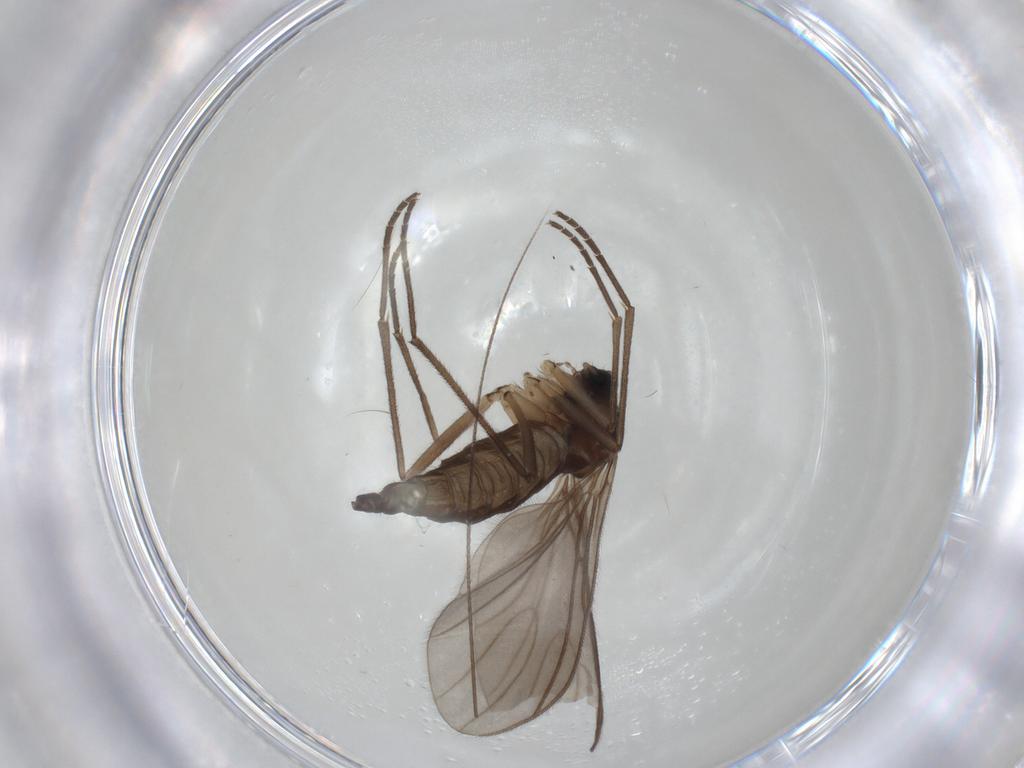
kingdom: Animalia
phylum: Arthropoda
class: Insecta
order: Diptera
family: Sciaridae
